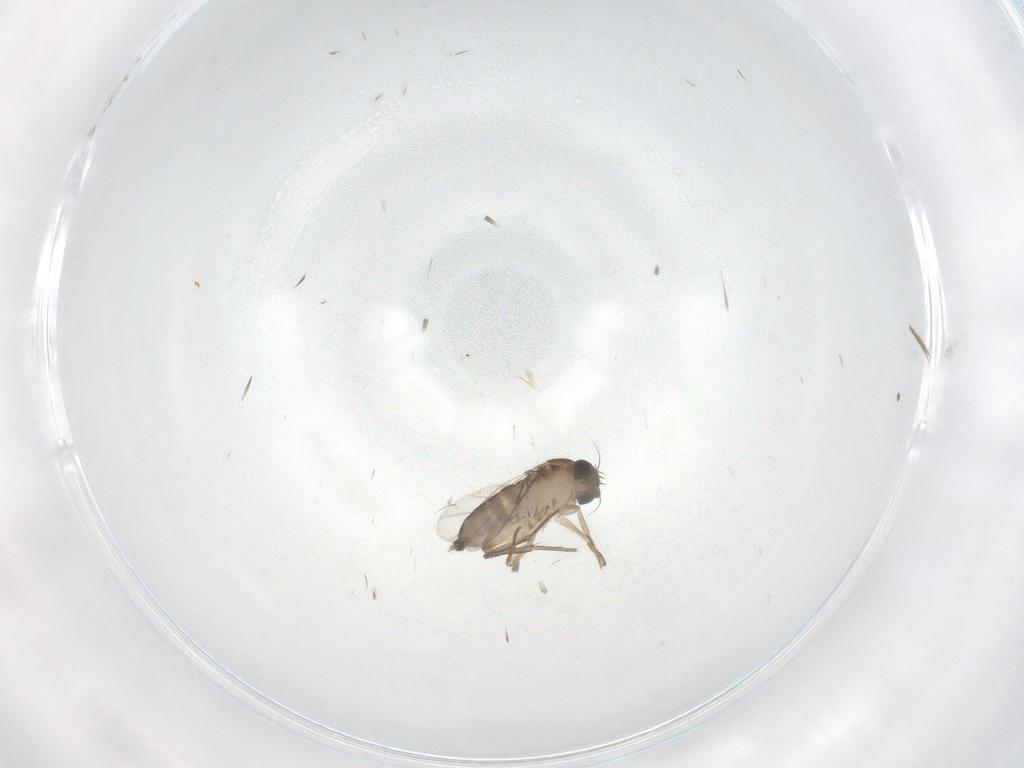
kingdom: Animalia
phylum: Arthropoda
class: Insecta
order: Diptera
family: Phoridae
